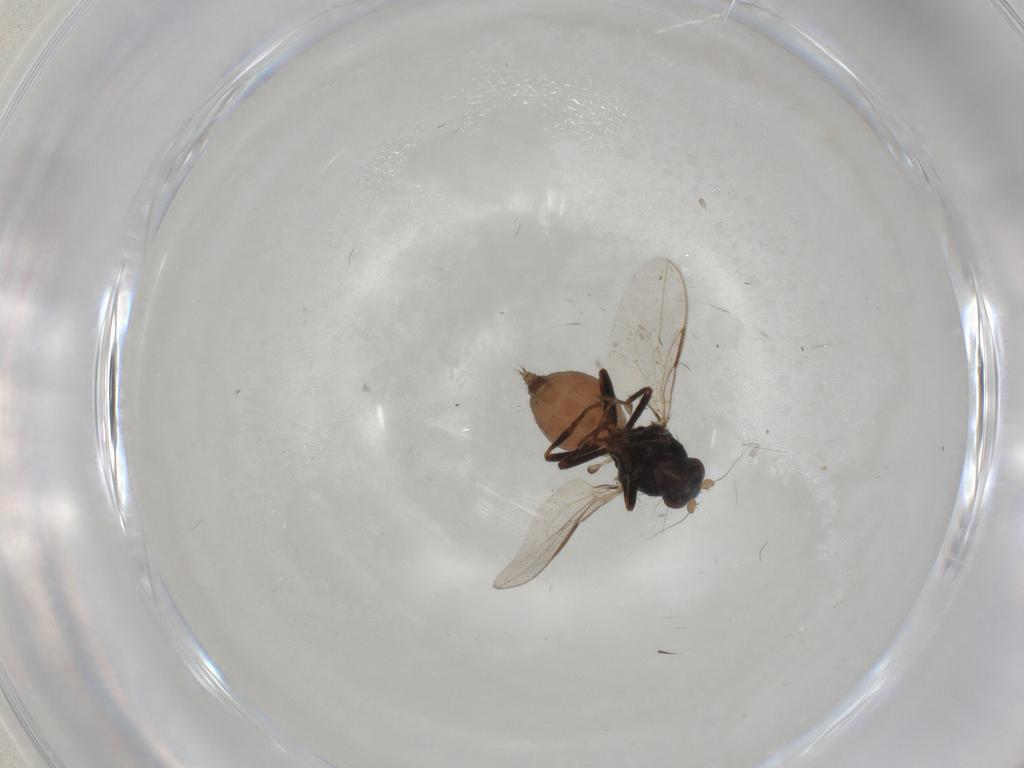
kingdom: Animalia
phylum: Arthropoda
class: Insecta
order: Diptera
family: Sphaeroceridae
